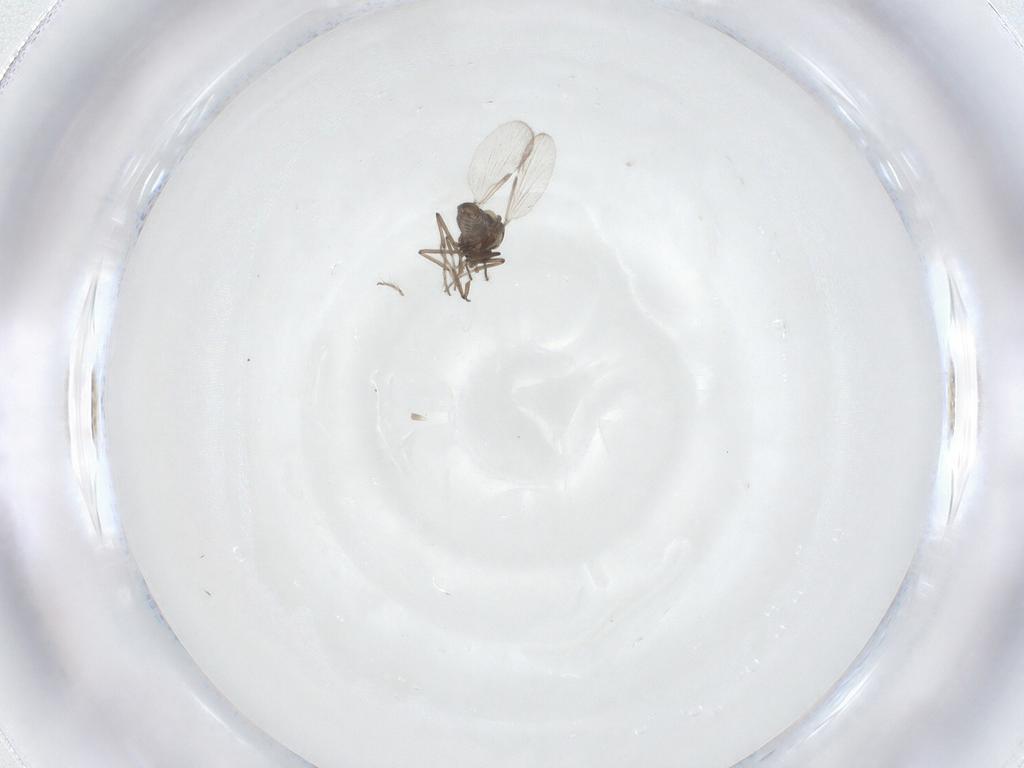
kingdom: Animalia
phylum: Arthropoda
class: Insecta
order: Diptera
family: Ceratopogonidae
